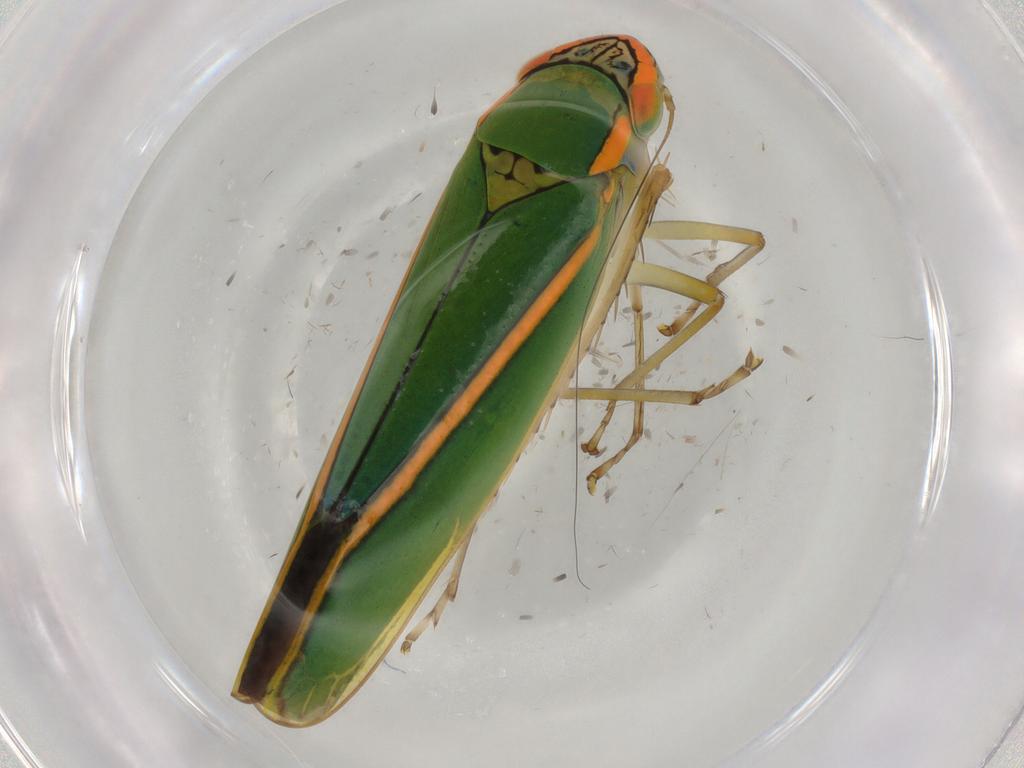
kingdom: Animalia
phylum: Arthropoda
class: Insecta
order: Hemiptera
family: Cicadellidae
